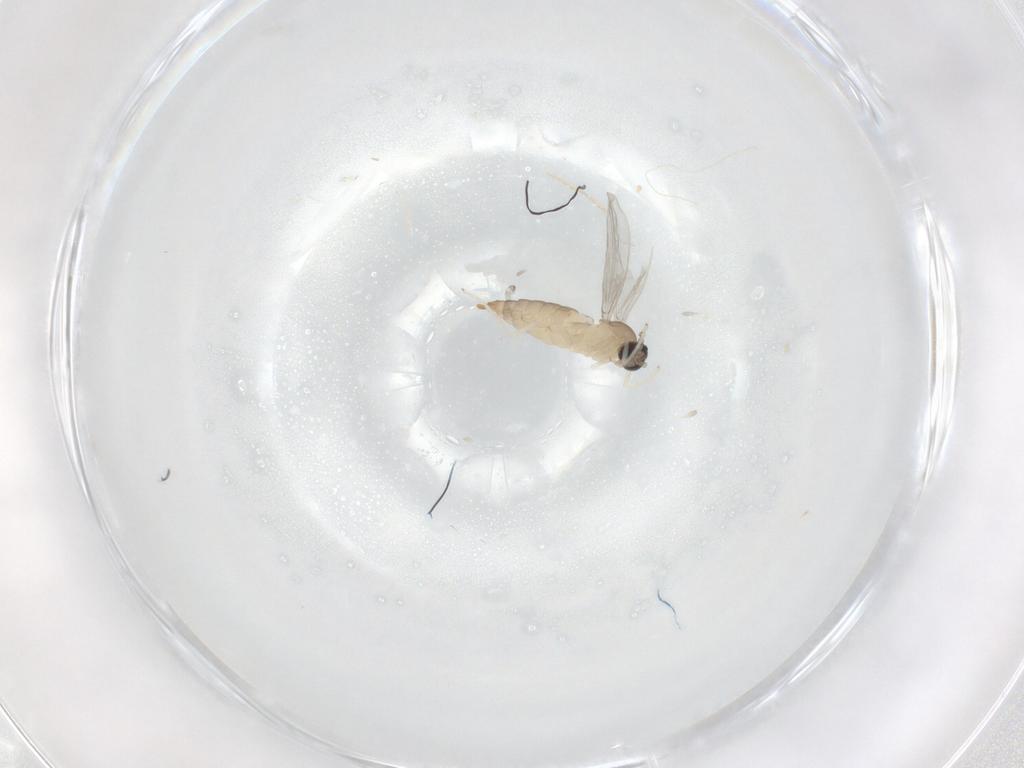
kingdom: Animalia
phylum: Arthropoda
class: Insecta
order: Diptera
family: Cecidomyiidae
